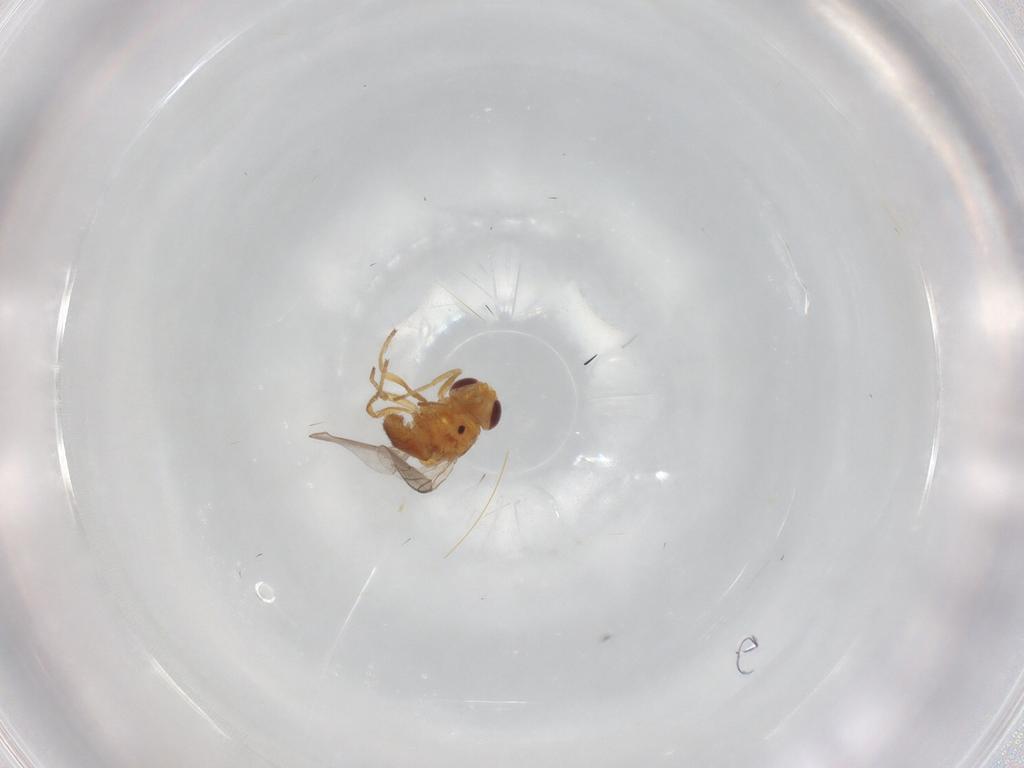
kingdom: Animalia
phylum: Arthropoda
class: Insecta
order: Diptera
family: Chloropidae
